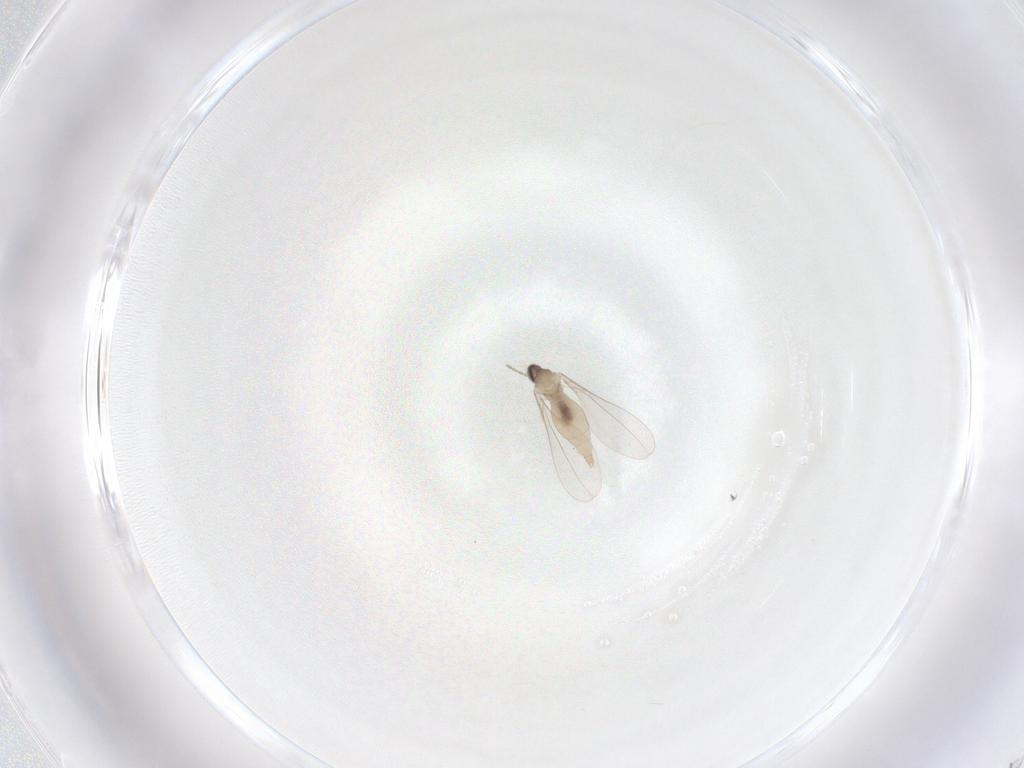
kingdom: Animalia
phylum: Arthropoda
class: Insecta
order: Diptera
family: Cecidomyiidae
